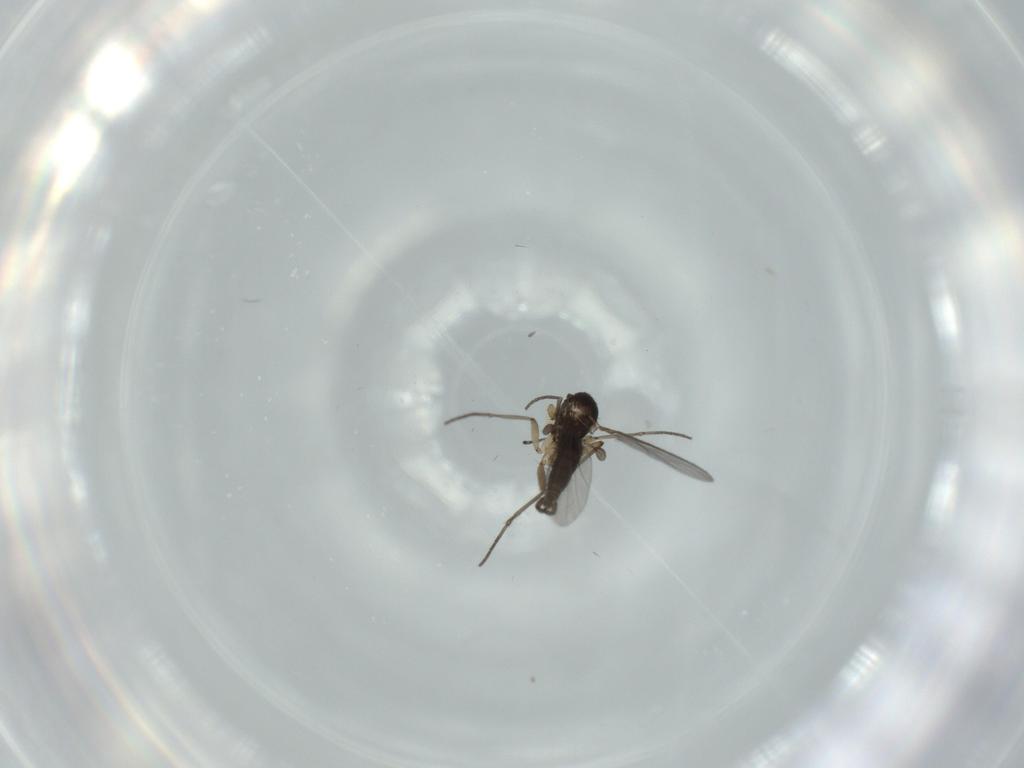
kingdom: Animalia
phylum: Arthropoda
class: Insecta
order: Diptera
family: Sciaridae
